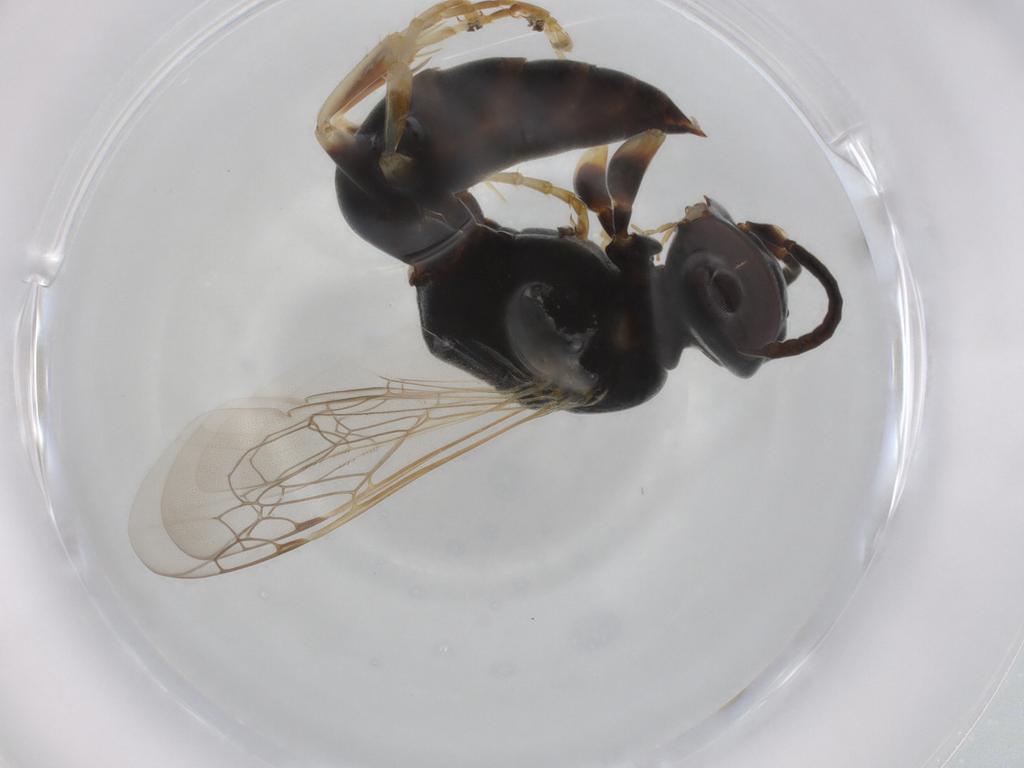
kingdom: Animalia
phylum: Arthropoda
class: Insecta
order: Hymenoptera
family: Crabronidae
